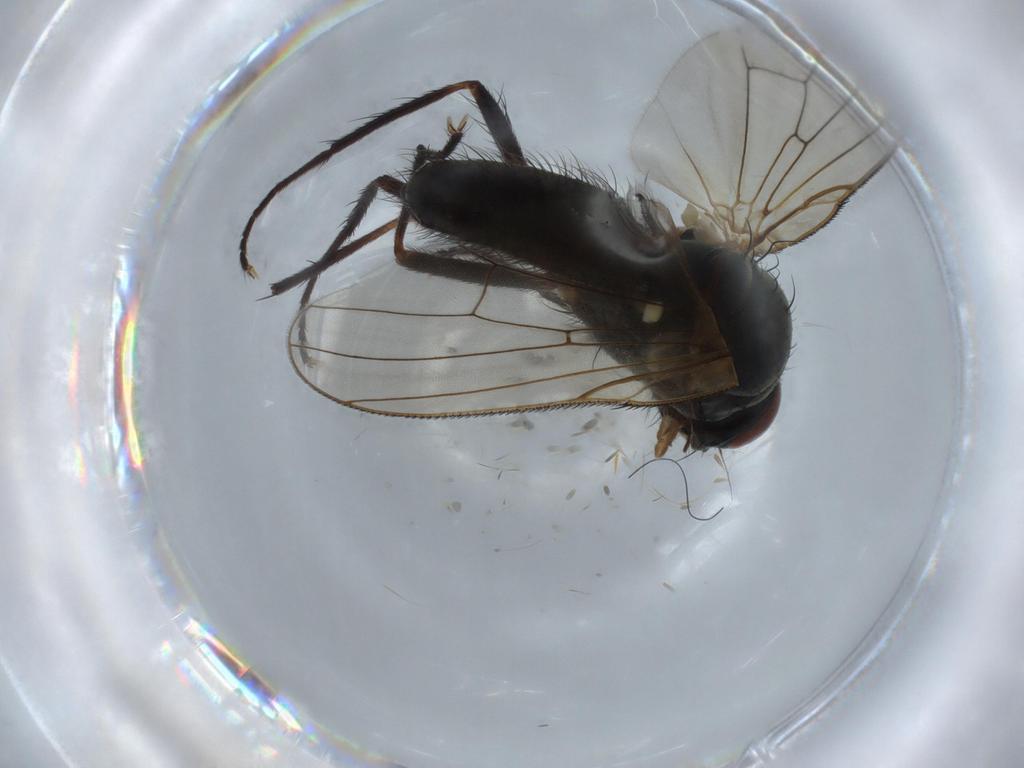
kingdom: Animalia
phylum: Arthropoda
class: Insecta
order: Diptera
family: Anthomyiidae
